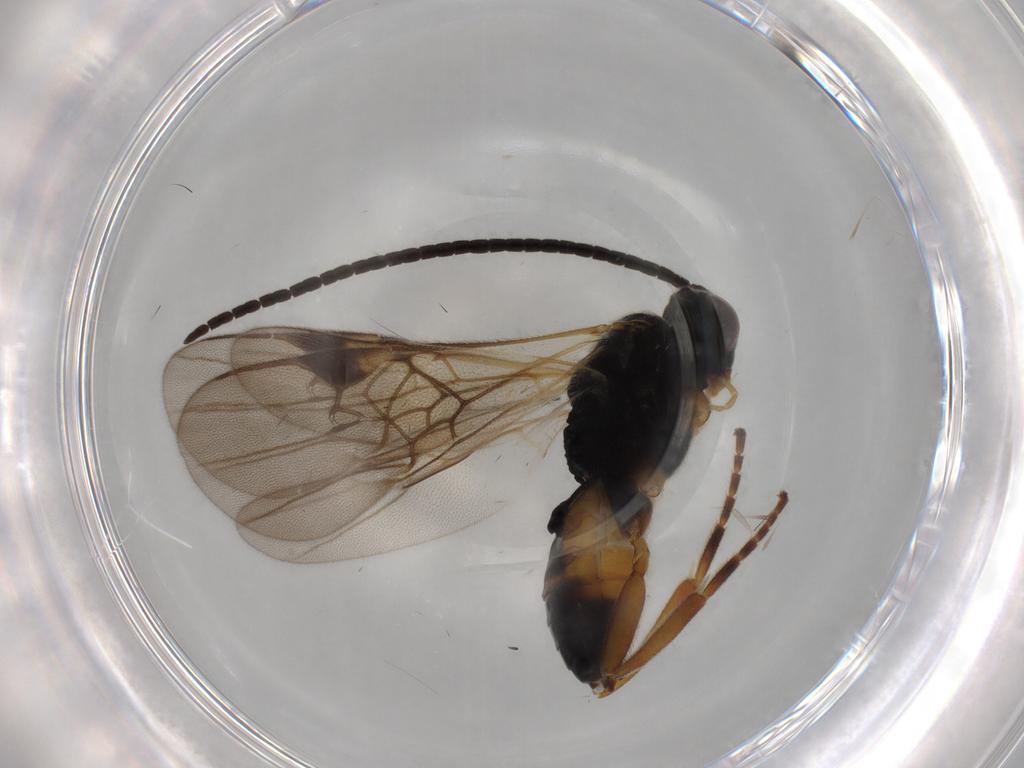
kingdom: Animalia
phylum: Arthropoda
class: Insecta
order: Hymenoptera
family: Braconidae
